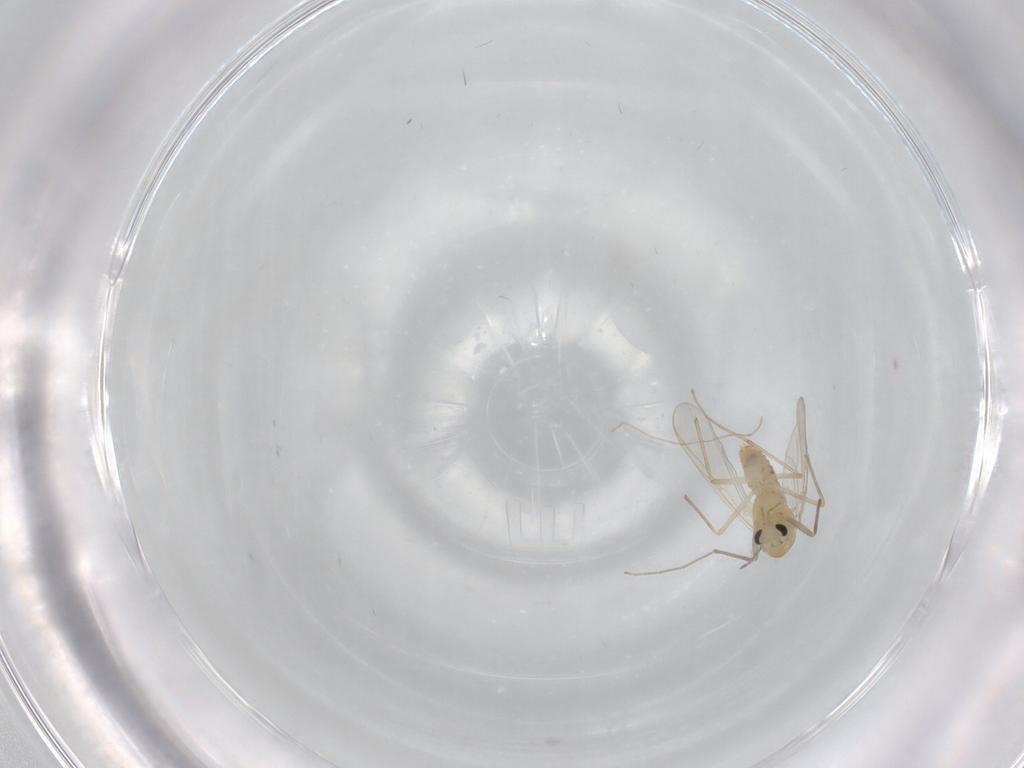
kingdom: Animalia
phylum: Arthropoda
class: Insecta
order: Diptera
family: Chironomidae
